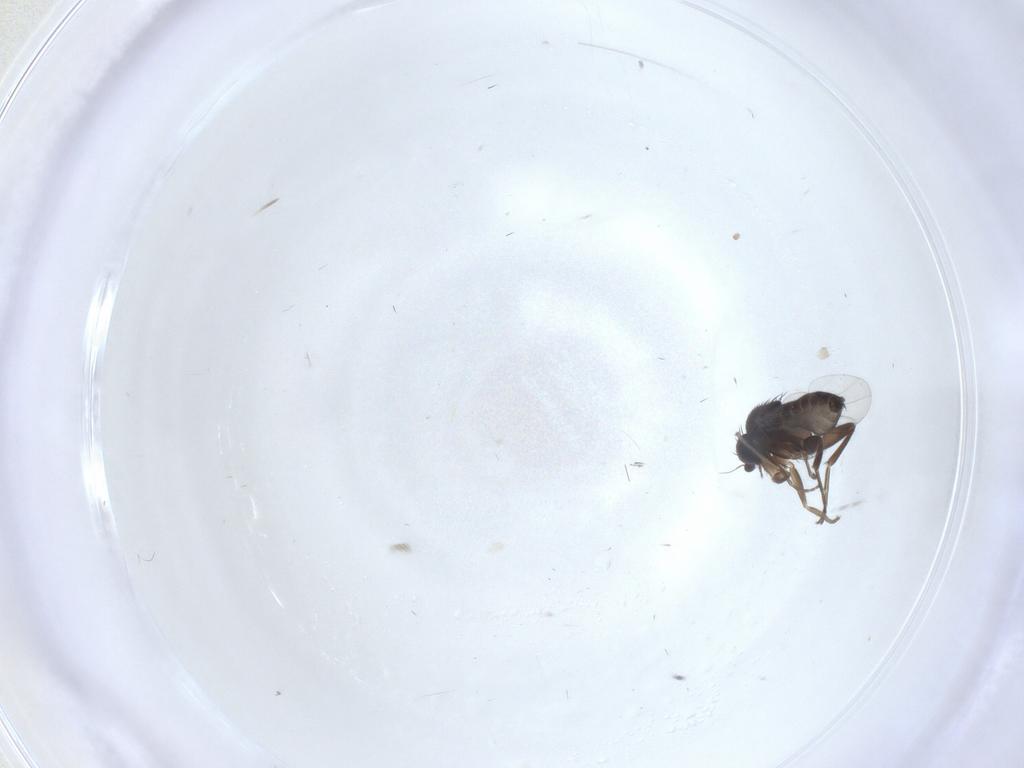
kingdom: Animalia
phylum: Arthropoda
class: Insecta
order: Diptera
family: Phoridae
